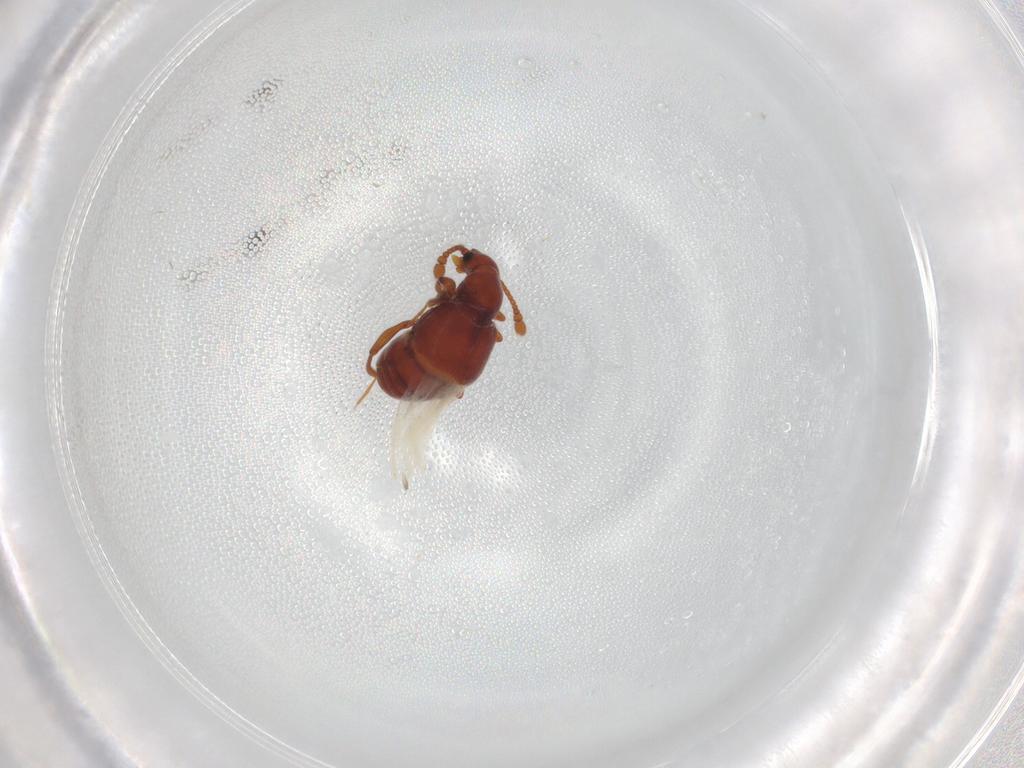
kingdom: Animalia
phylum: Arthropoda
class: Insecta
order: Coleoptera
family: Staphylinidae
